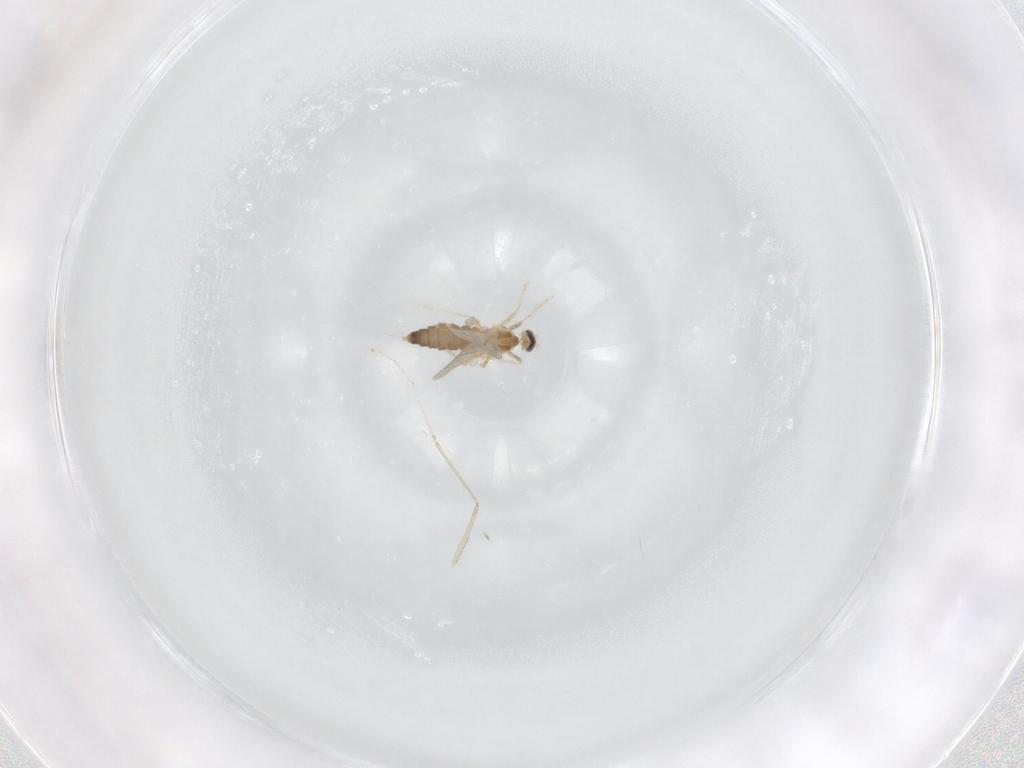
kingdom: Animalia
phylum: Arthropoda
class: Insecta
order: Diptera
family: Cecidomyiidae
